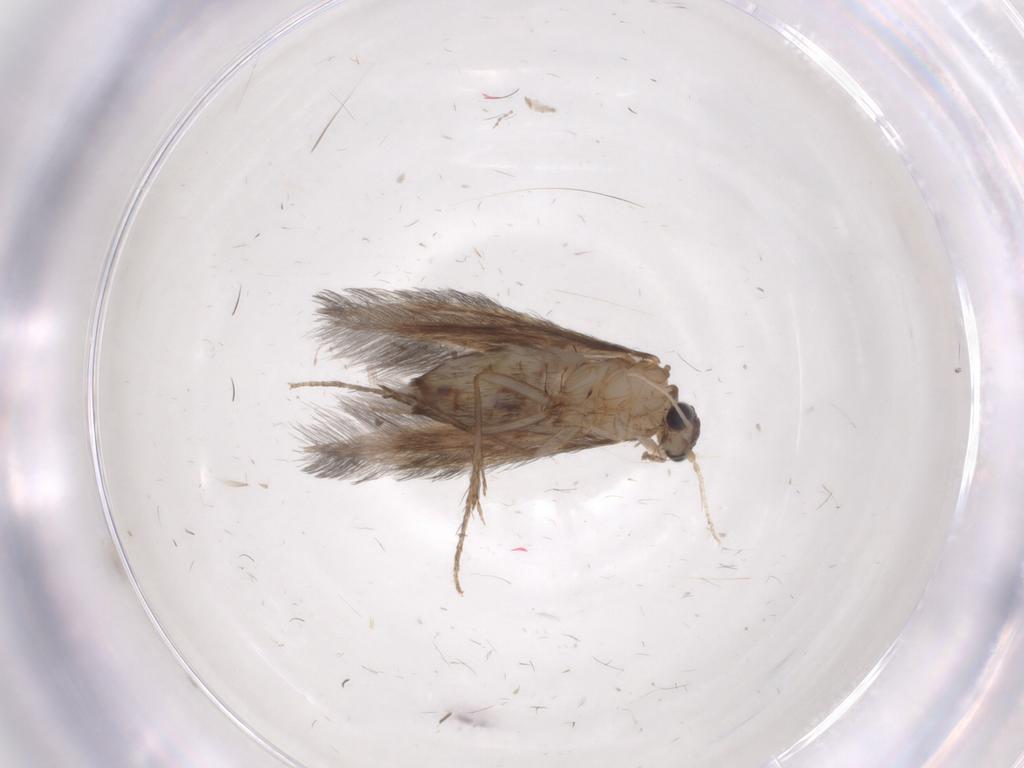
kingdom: Animalia
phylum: Arthropoda
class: Insecta
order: Trichoptera
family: Hydroptilidae
